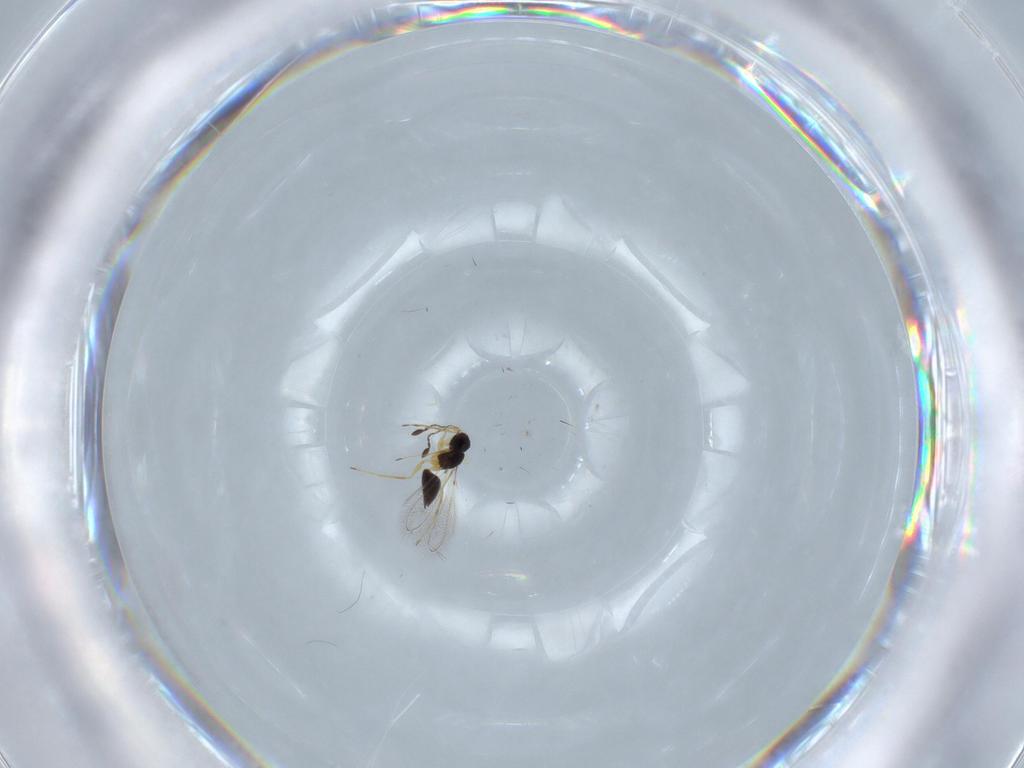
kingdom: Animalia
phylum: Arthropoda
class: Insecta
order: Hymenoptera
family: Mymaridae
